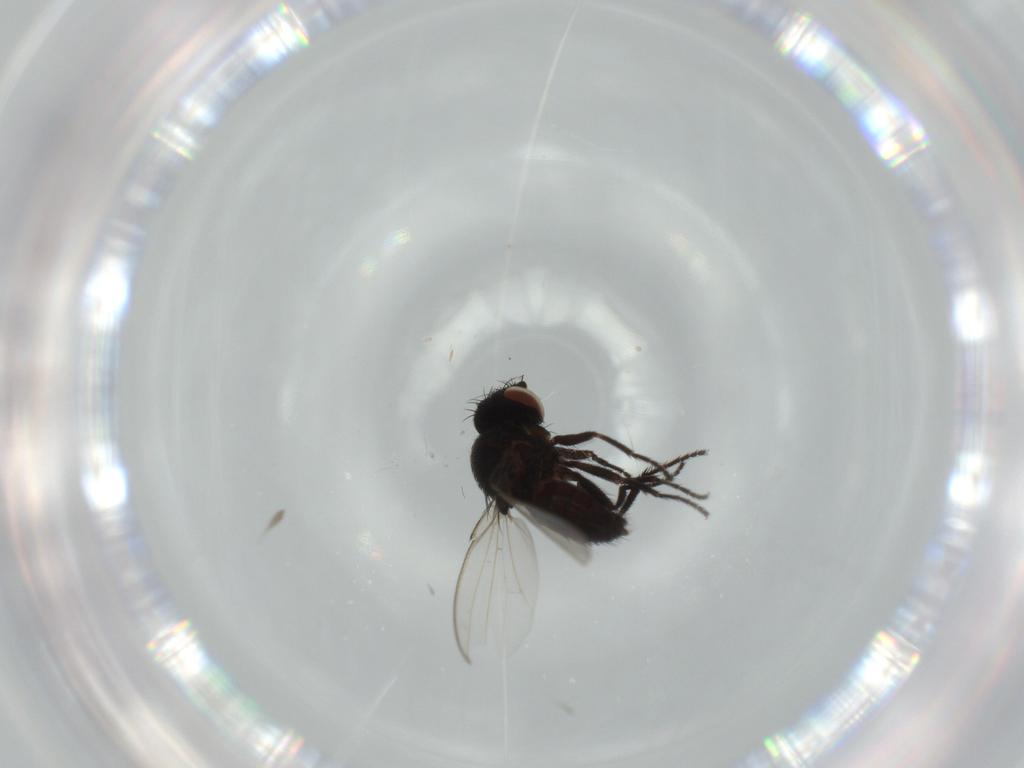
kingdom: Animalia
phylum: Arthropoda
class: Insecta
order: Diptera
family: Milichiidae
